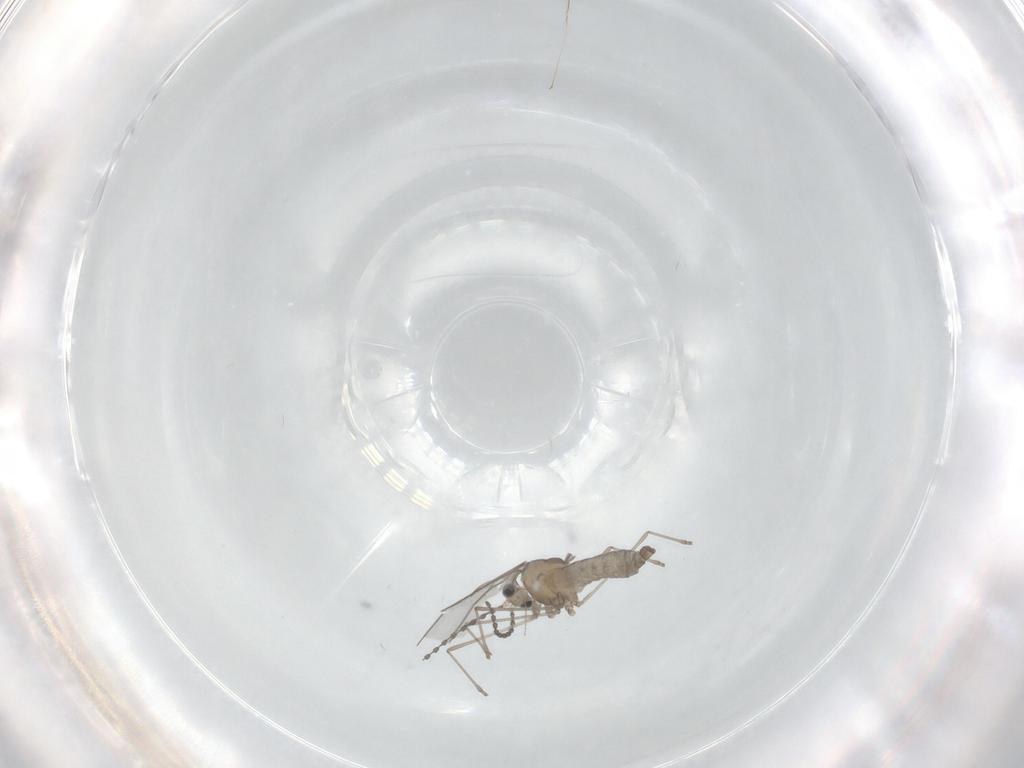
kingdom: Animalia
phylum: Arthropoda
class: Insecta
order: Diptera
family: Cecidomyiidae
